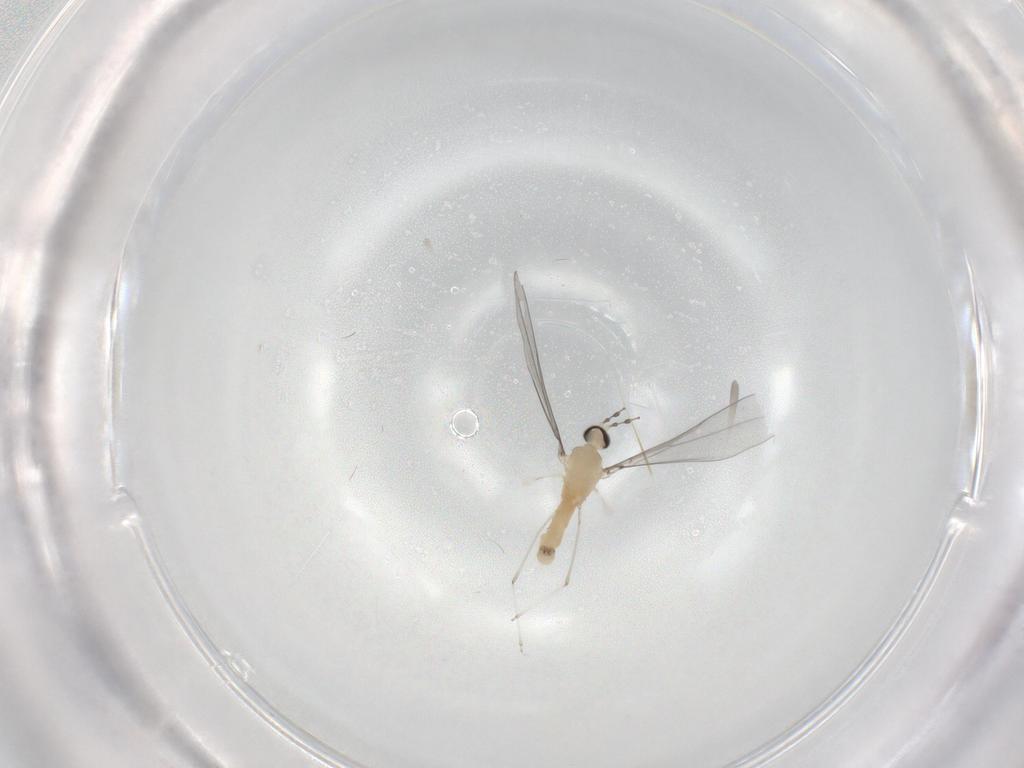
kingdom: Animalia
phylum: Arthropoda
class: Insecta
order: Diptera
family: Cecidomyiidae
